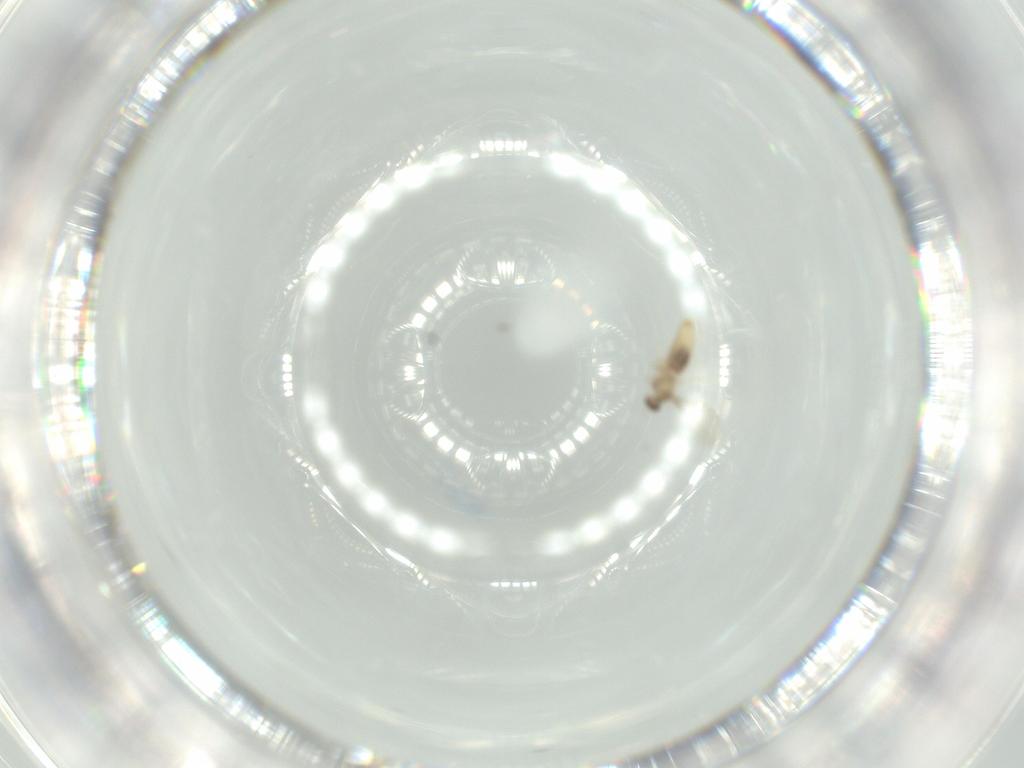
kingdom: Animalia
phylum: Arthropoda
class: Insecta
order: Diptera
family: Cecidomyiidae
